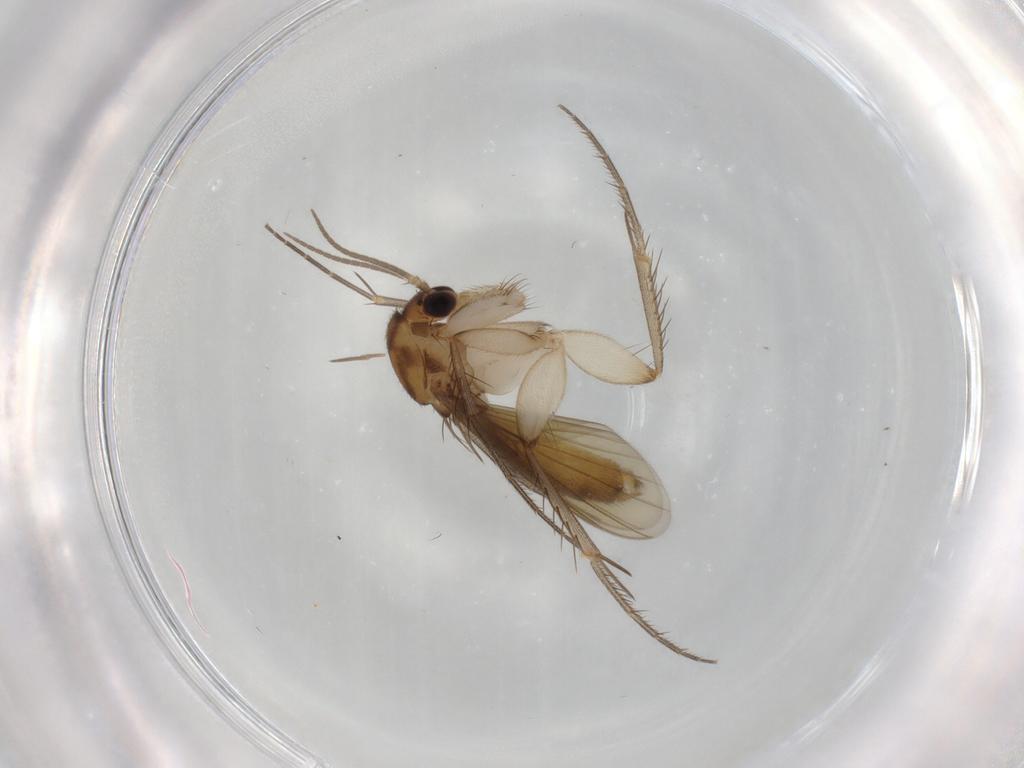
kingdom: Animalia
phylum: Arthropoda
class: Insecta
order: Diptera
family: Mycetophilidae
